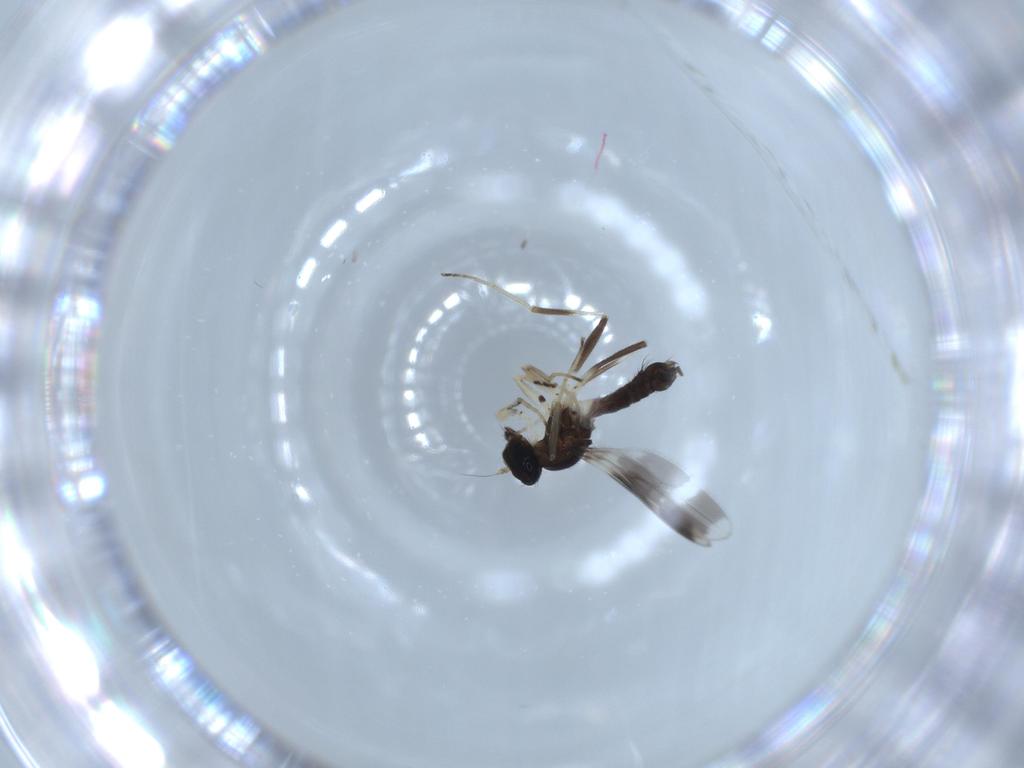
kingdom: Animalia
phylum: Arthropoda
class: Insecta
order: Diptera
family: Hybotidae
